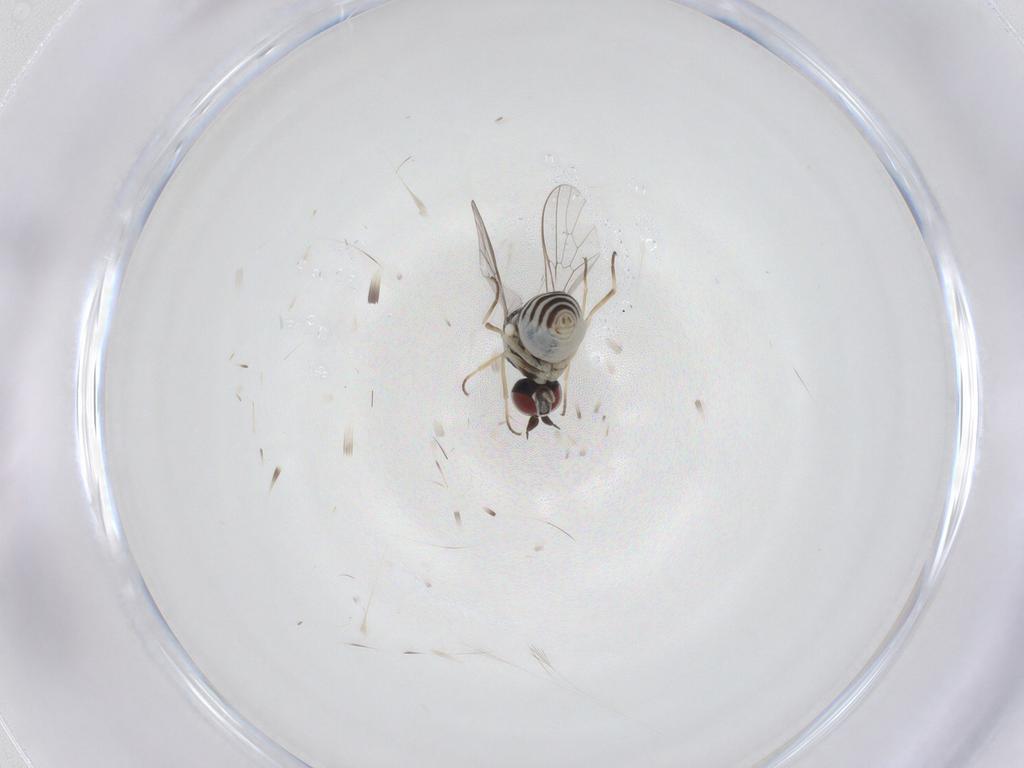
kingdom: Animalia
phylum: Arthropoda
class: Insecta
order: Diptera
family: Bombyliidae
